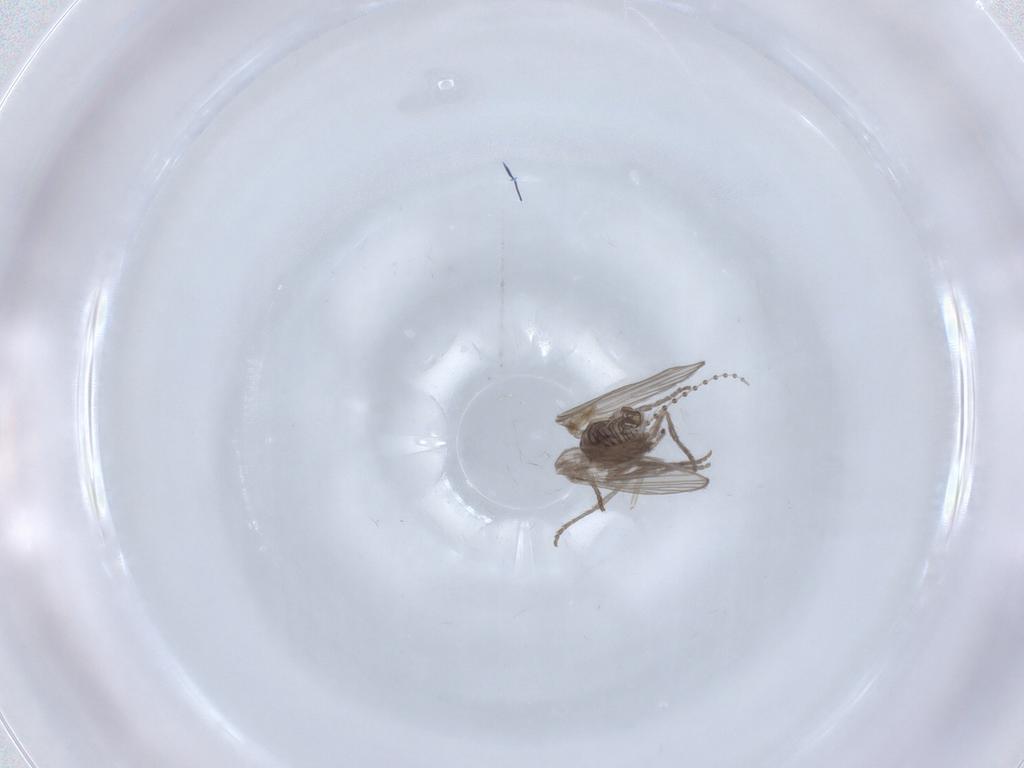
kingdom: Animalia
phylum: Arthropoda
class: Insecta
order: Diptera
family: Psychodidae
